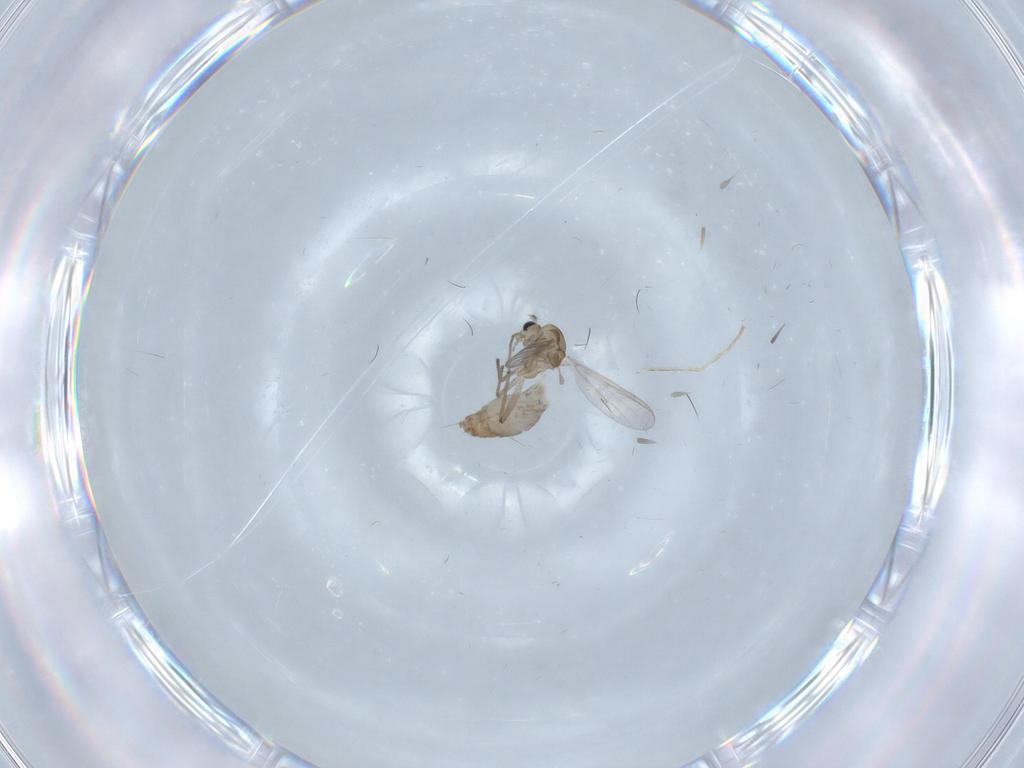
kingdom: Animalia
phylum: Arthropoda
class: Insecta
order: Diptera
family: Chironomidae
